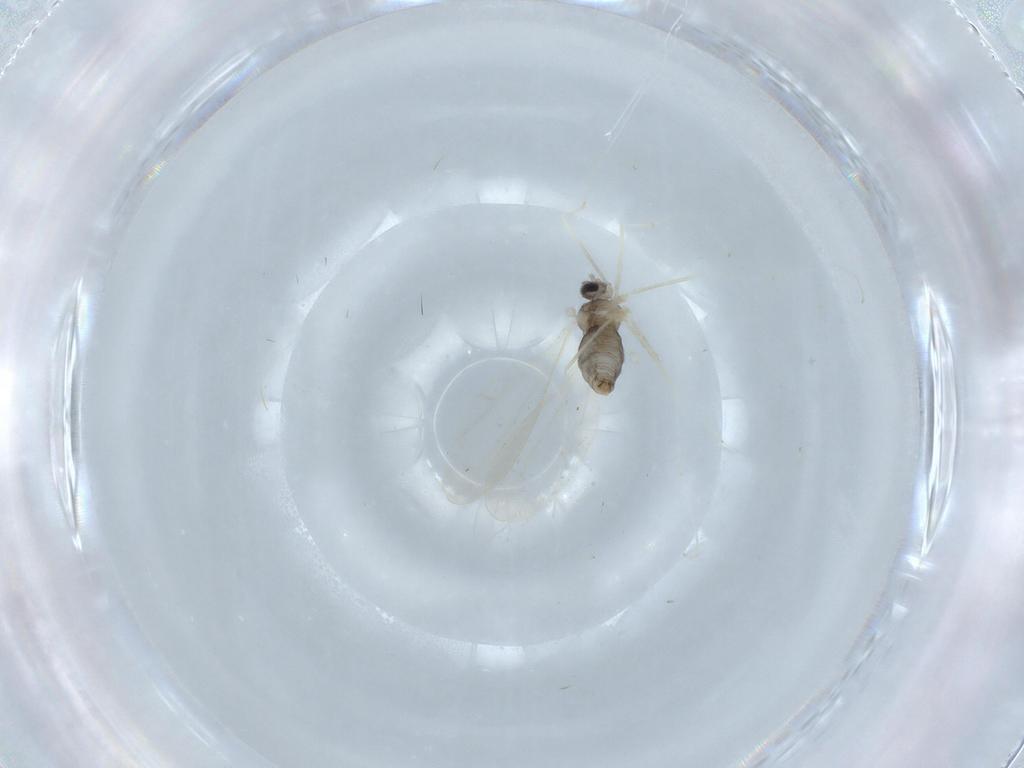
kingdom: Animalia
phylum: Arthropoda
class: Insecta
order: Diptera
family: Cecidomyiidae
